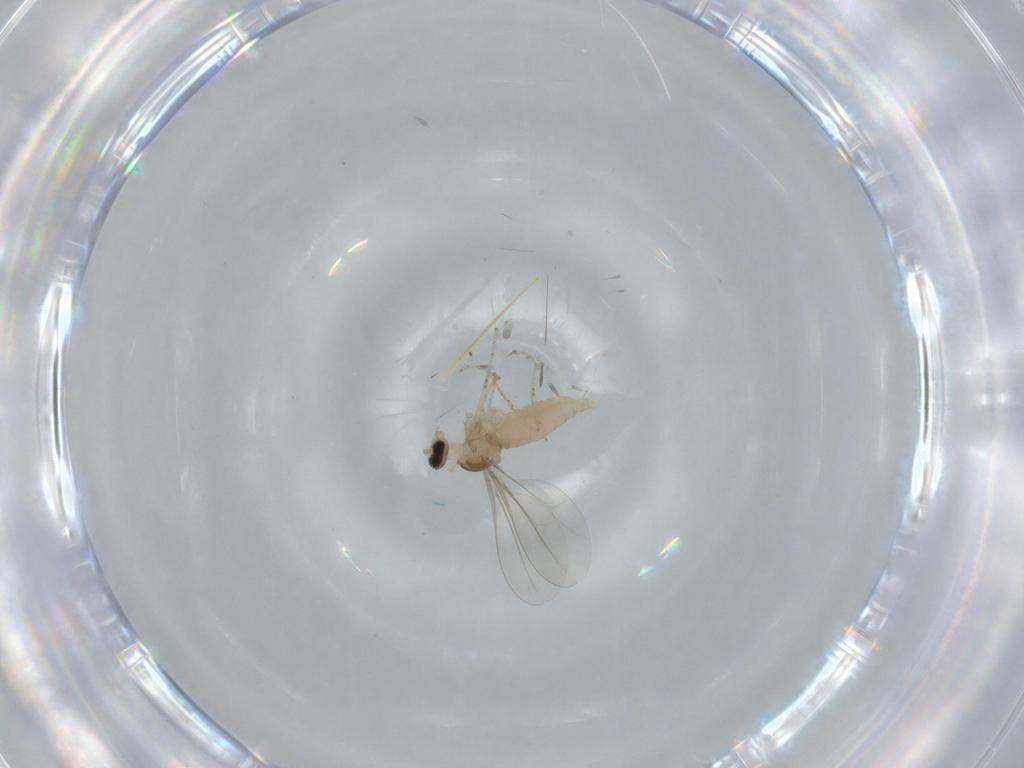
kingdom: Animalia
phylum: Arthropoda
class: Insecta
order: Diptera
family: Cecidomyiidae
